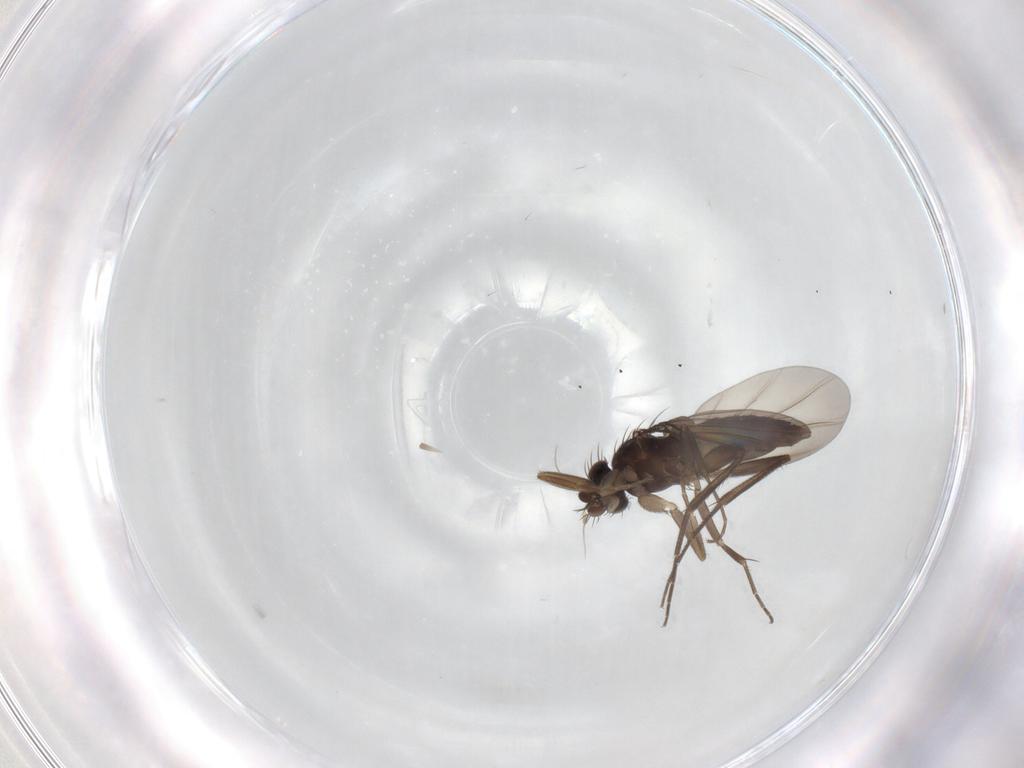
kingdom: Animalia
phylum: Arthropoda
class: Insecta
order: Diptera
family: Phoridae
